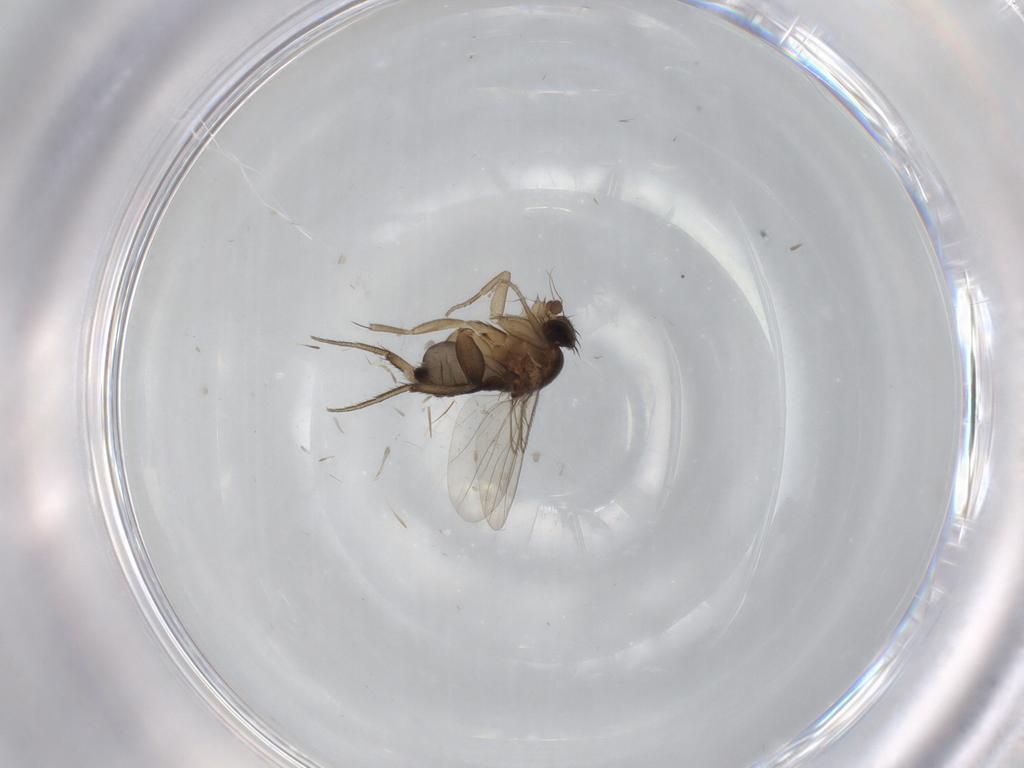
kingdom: Animalia
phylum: Arthropoda
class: Insecta
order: Diptera
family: Phoridae
